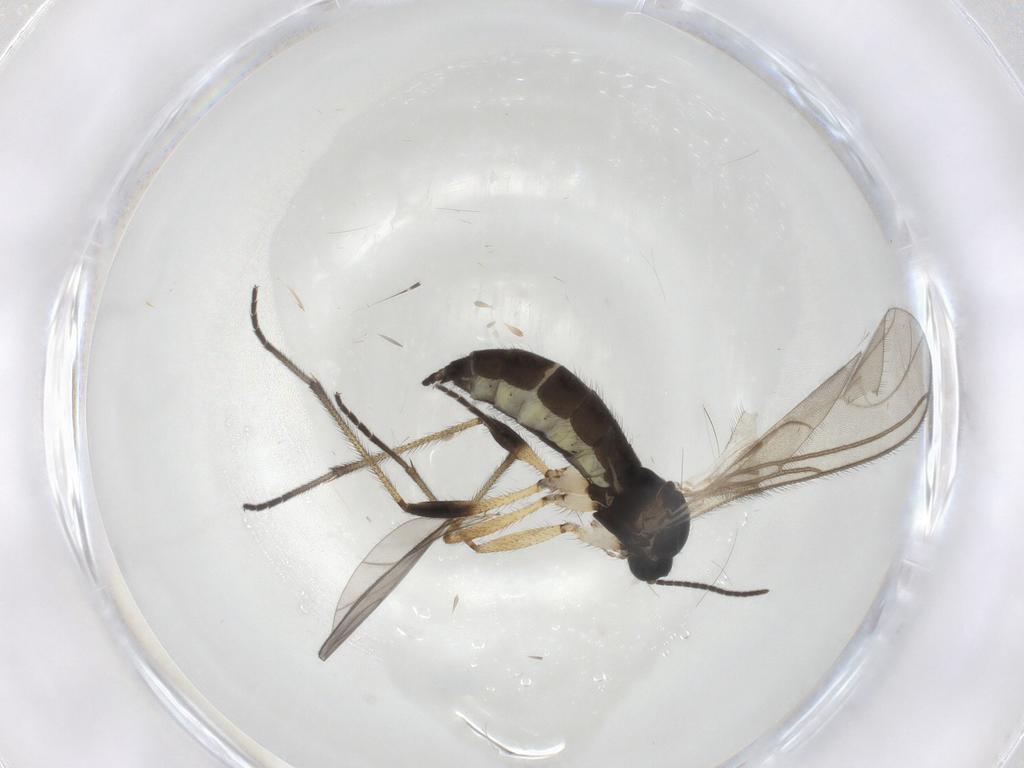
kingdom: Animalia
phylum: Arthropoda
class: Insecta
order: Diptera
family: Sciaridae
